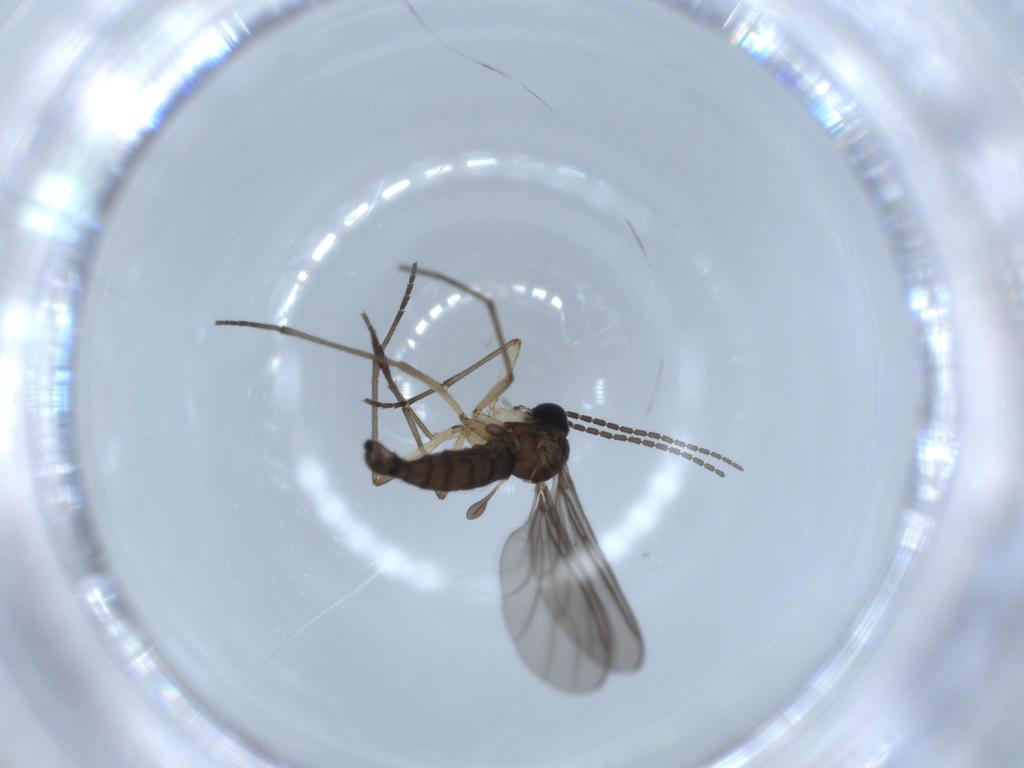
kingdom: Animalia
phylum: Arthropoda
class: Insecta
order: Diptera
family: Sciaridae
